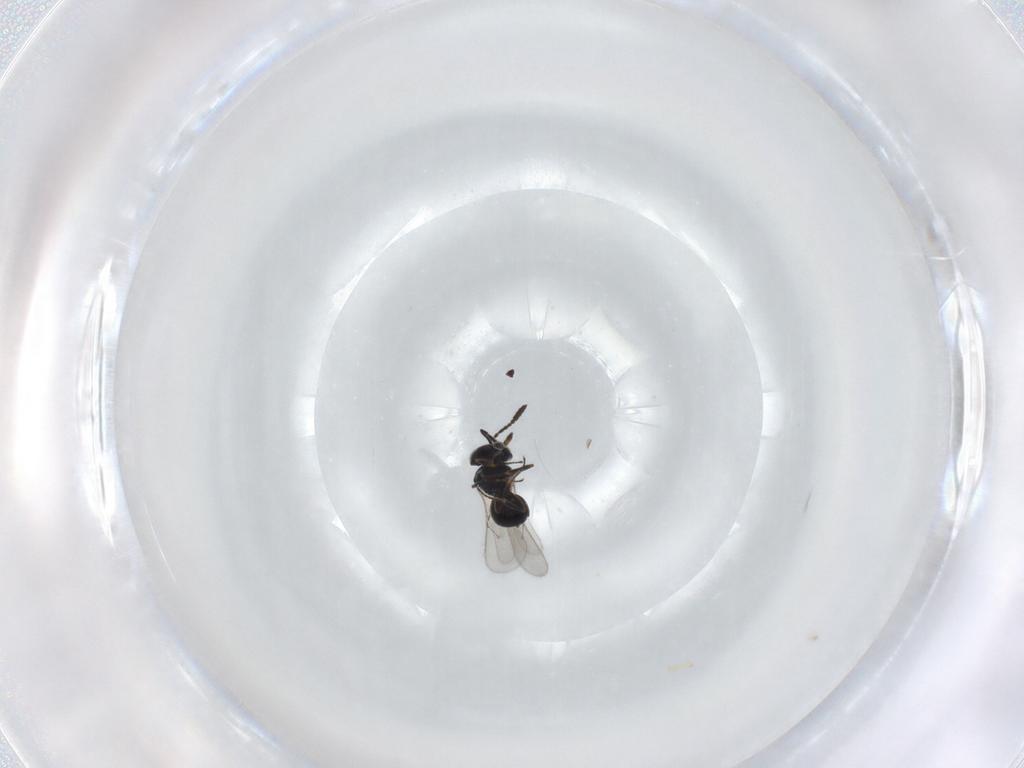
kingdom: Animalia
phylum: Arthropoda
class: Insecta
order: Hymenoptera
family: Scelionidae
